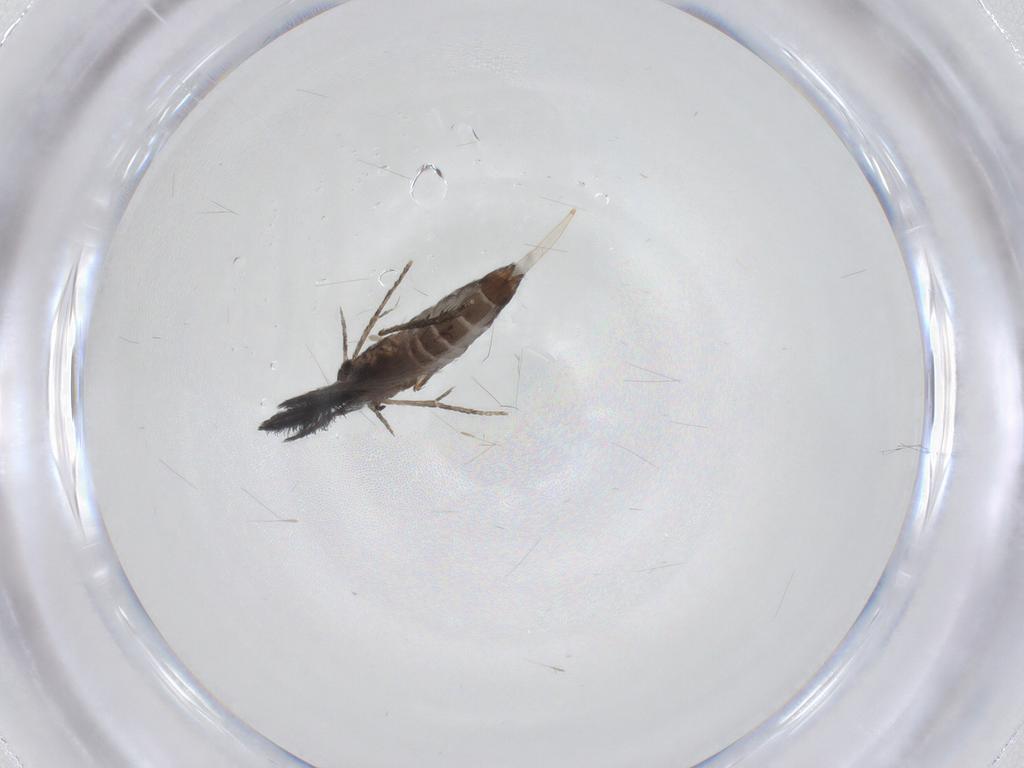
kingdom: Animalia
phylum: Arthropoda
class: Insecta
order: Trichoptera
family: Hydroptilidae
